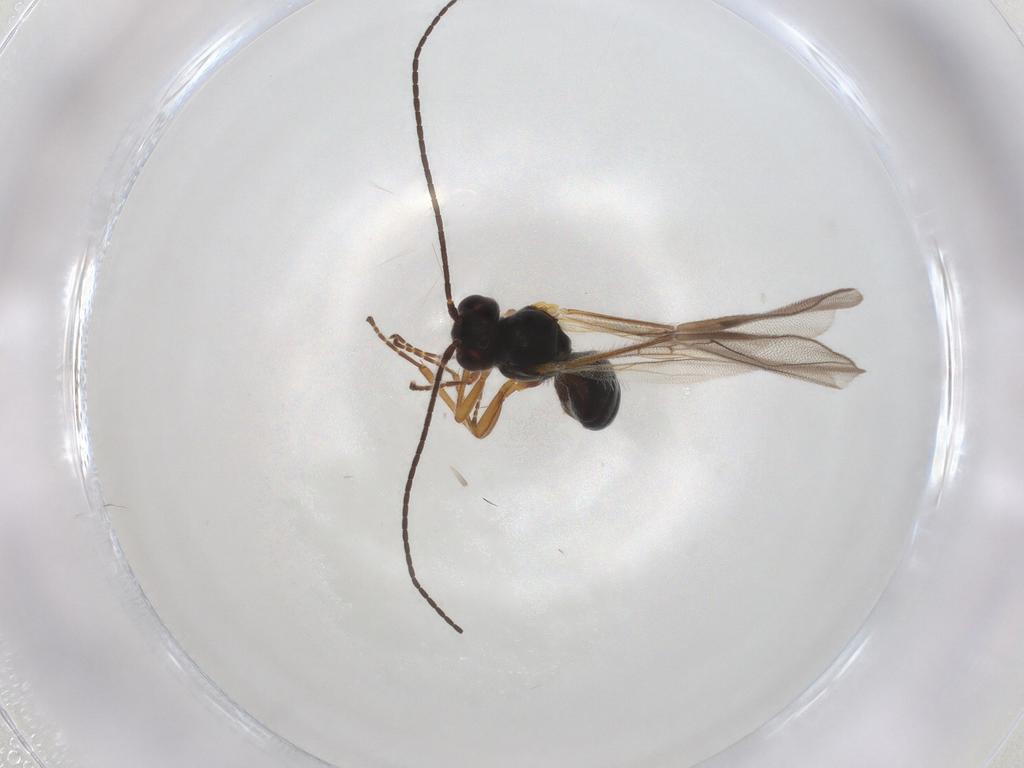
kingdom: Animalia
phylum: Arthropoda
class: Insecta
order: Hymenoptera
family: Braconidae
